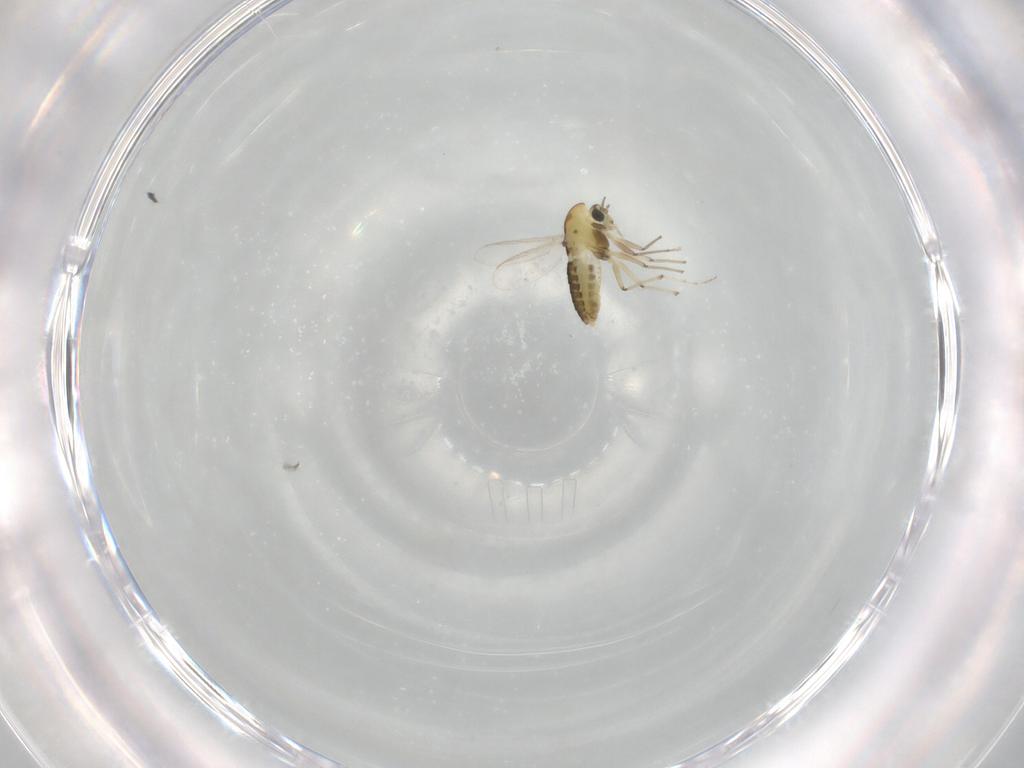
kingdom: Animalia
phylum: Arthropoda
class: Insecta
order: Diptera
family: Chironomidae
